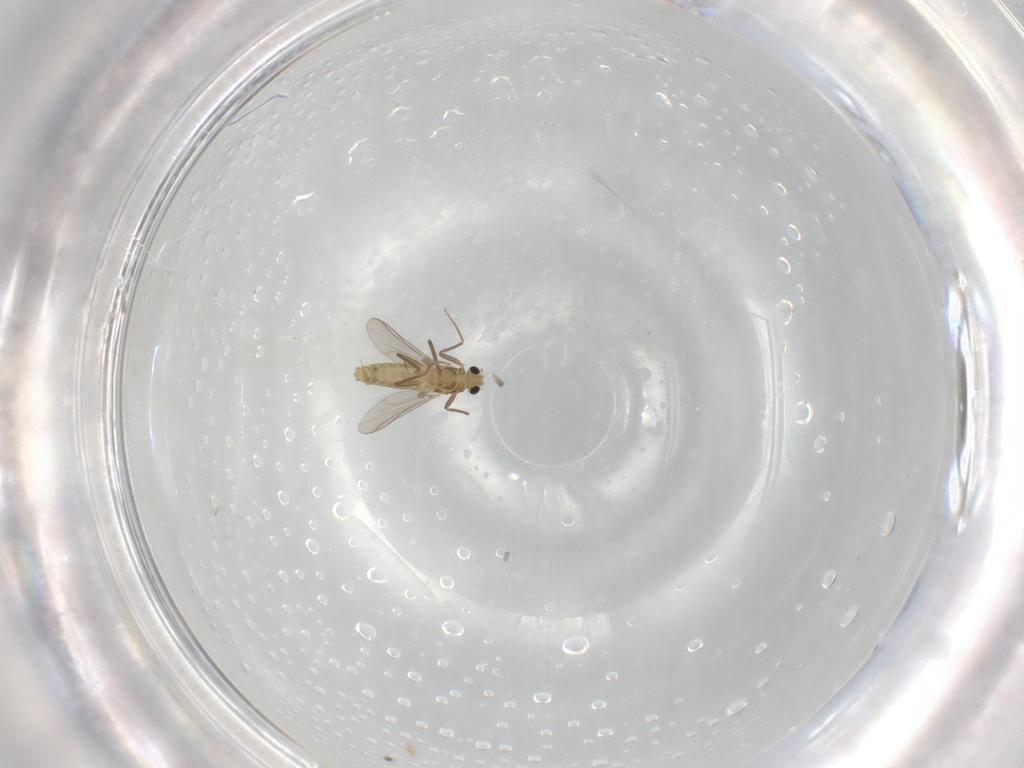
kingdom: Animalia
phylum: Arthropoda
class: Insecta
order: Diptera
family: Chironomidae
